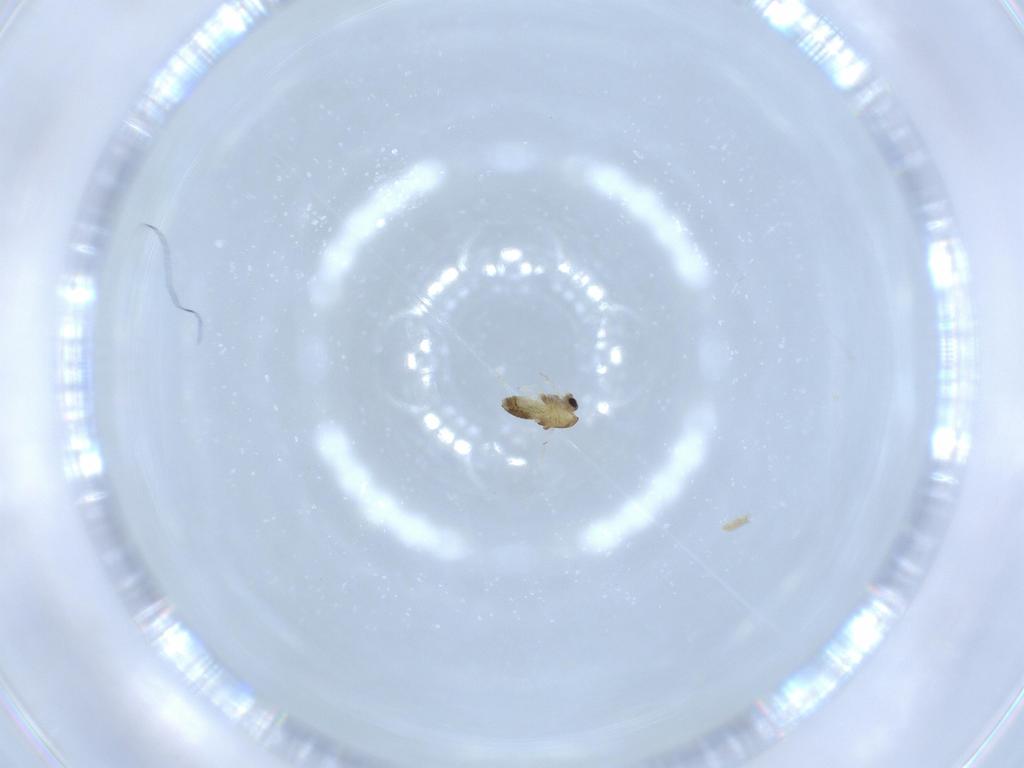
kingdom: Animalia
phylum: Arthropoda
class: Insecta
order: Diptera
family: Chironomidae
